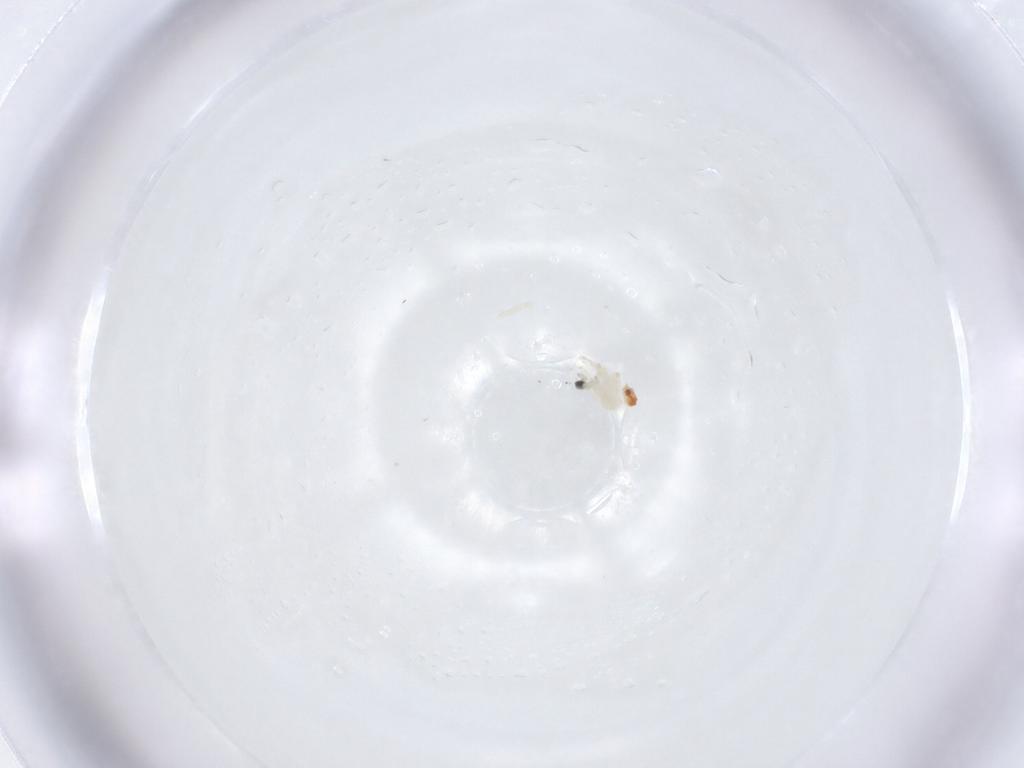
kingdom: Animalia
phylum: Arthropoda
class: Insecta
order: Diptera
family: Cecidomyiidae
